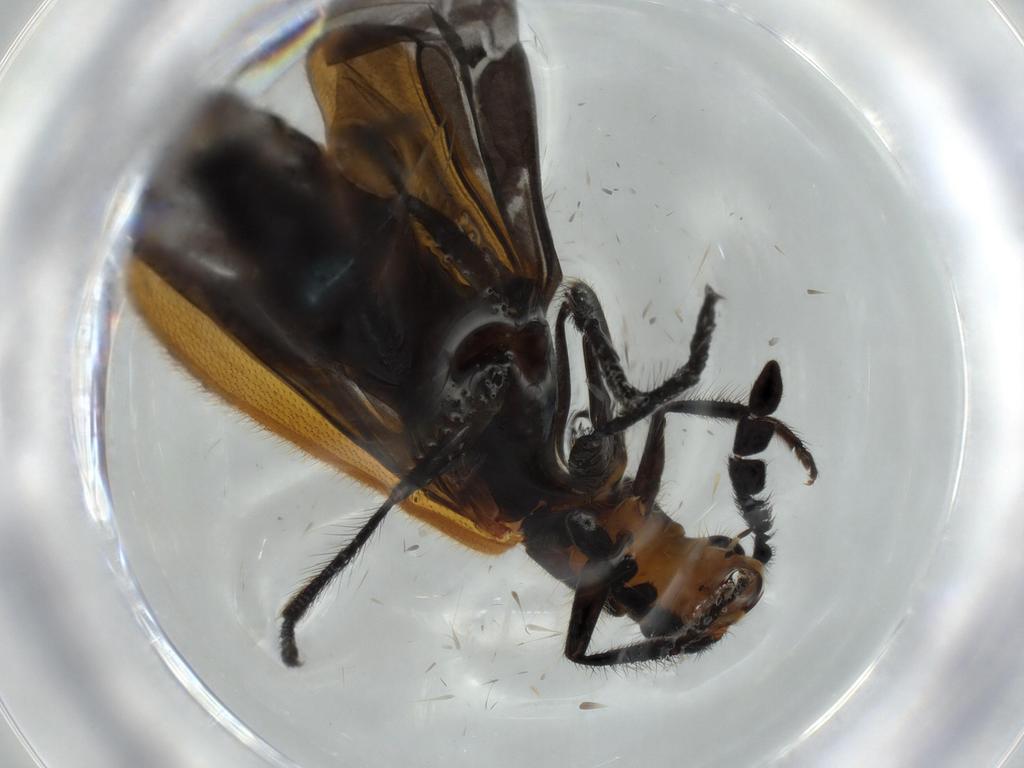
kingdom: Animalia
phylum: Arthropoda
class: Insecta
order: Coleoptera
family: Cleridae
